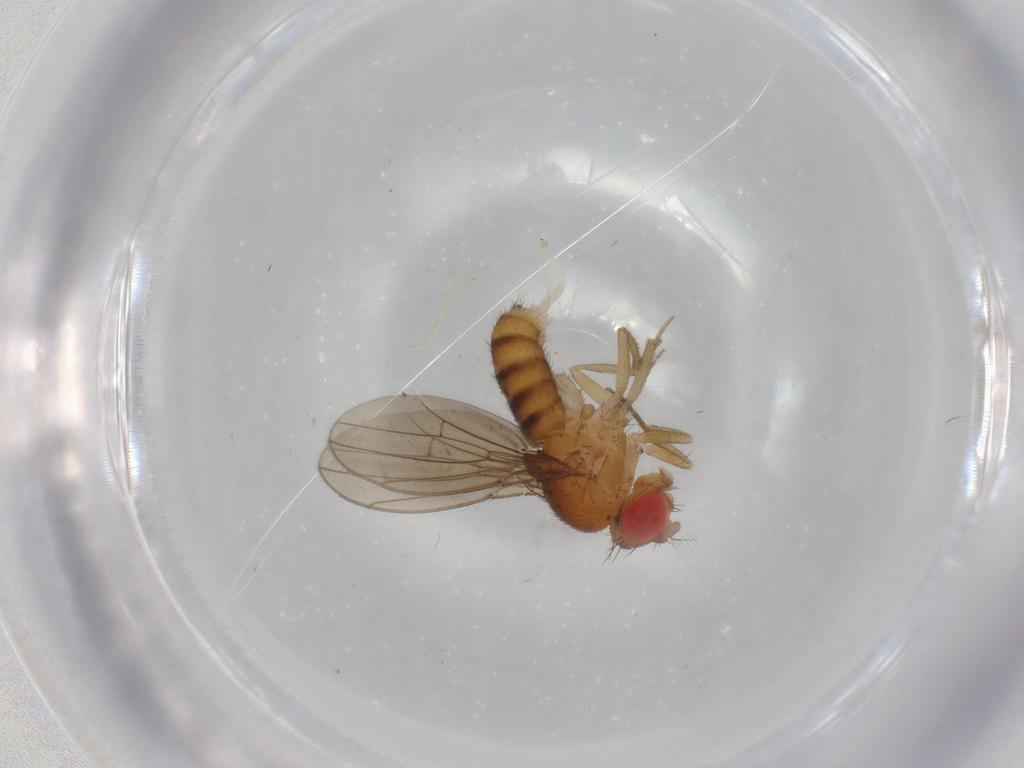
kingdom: Animalia
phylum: Arthropoda
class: Insecta
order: Diptera
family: Drosophilidae
